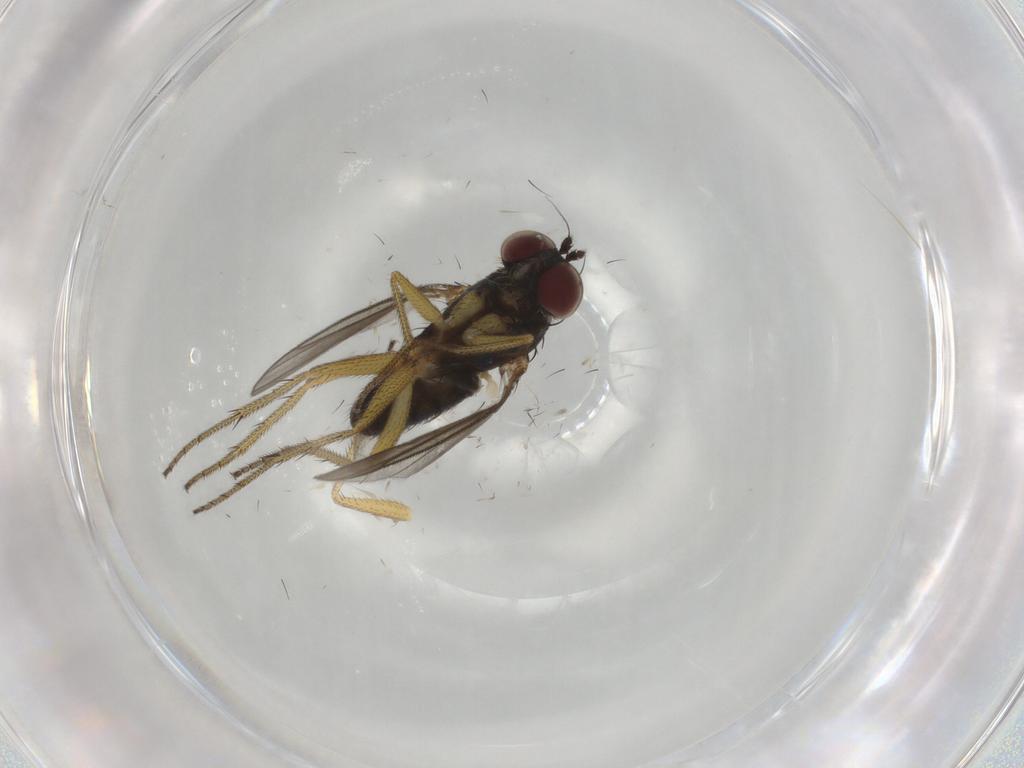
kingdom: Animalia
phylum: Arthropoda
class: Insecta
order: Diptera
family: Dolichopodidae
